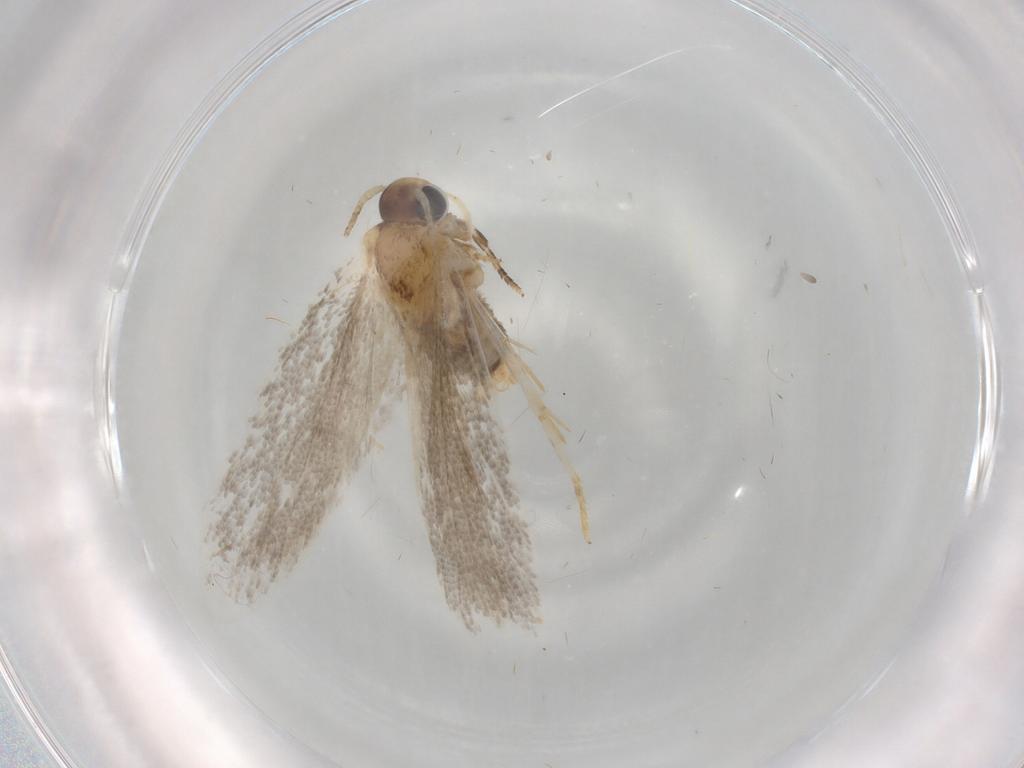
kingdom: Animalia
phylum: Arthropoda
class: Insecta
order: Lepidoptera
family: Oecophoridae
